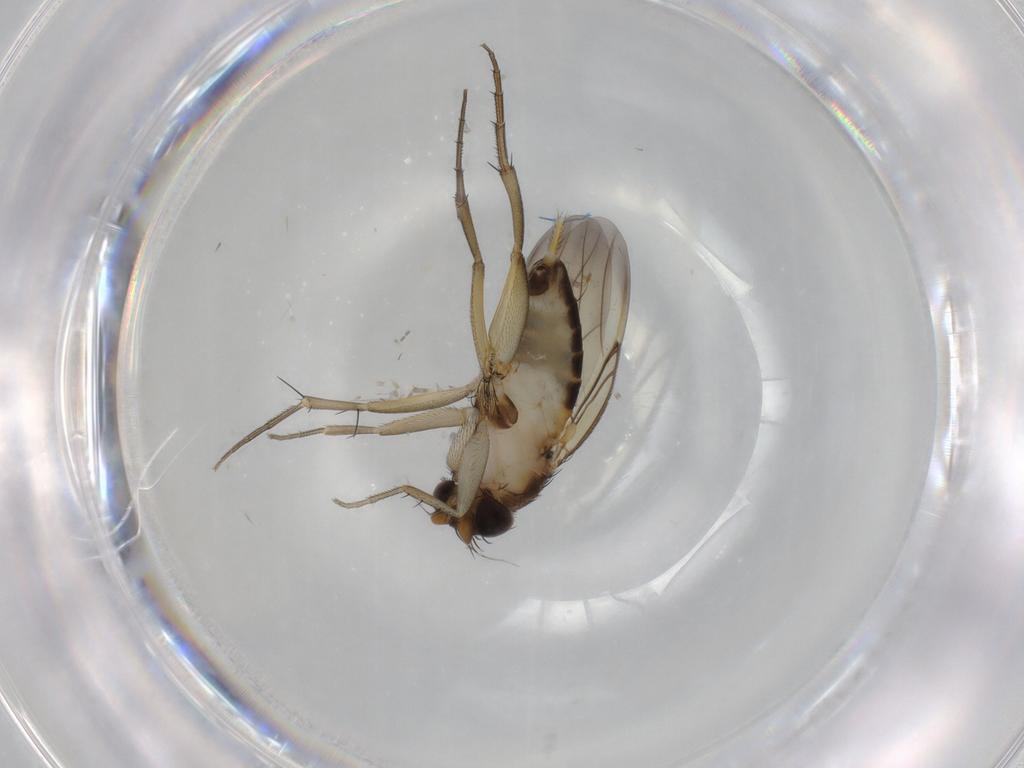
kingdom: Animalia
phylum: Arthropoda
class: Insecta
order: Diptera
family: Phoridae
